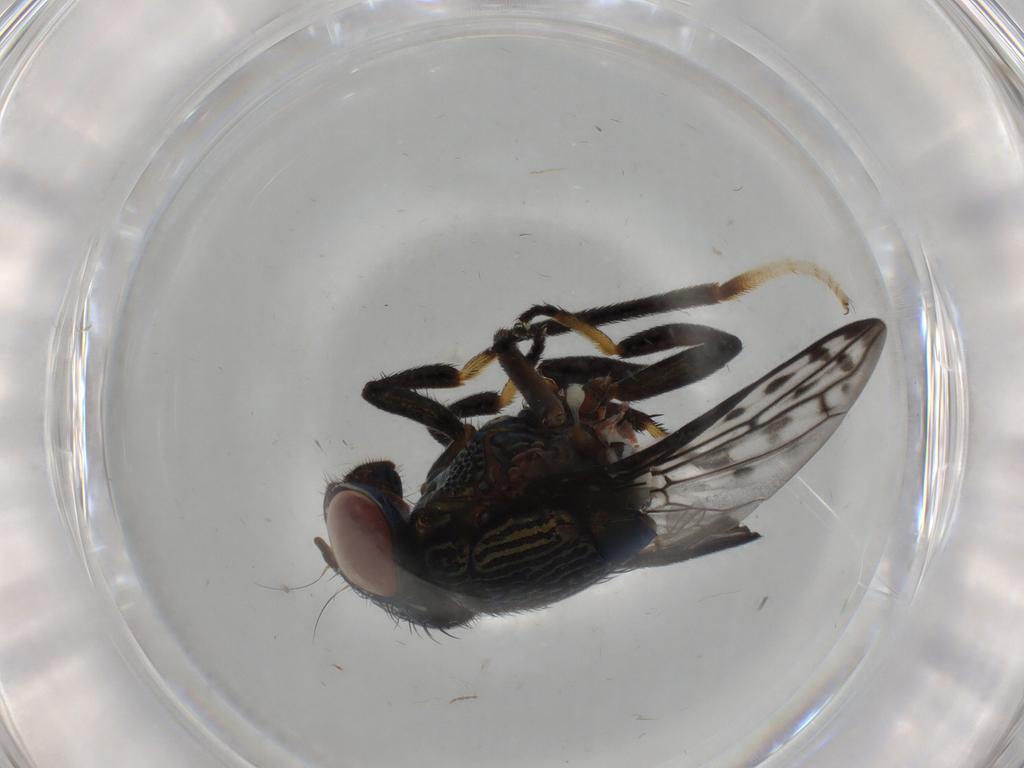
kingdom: Animalia
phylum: Arthropoda
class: Insecta
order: Diptera
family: Micropezidae
